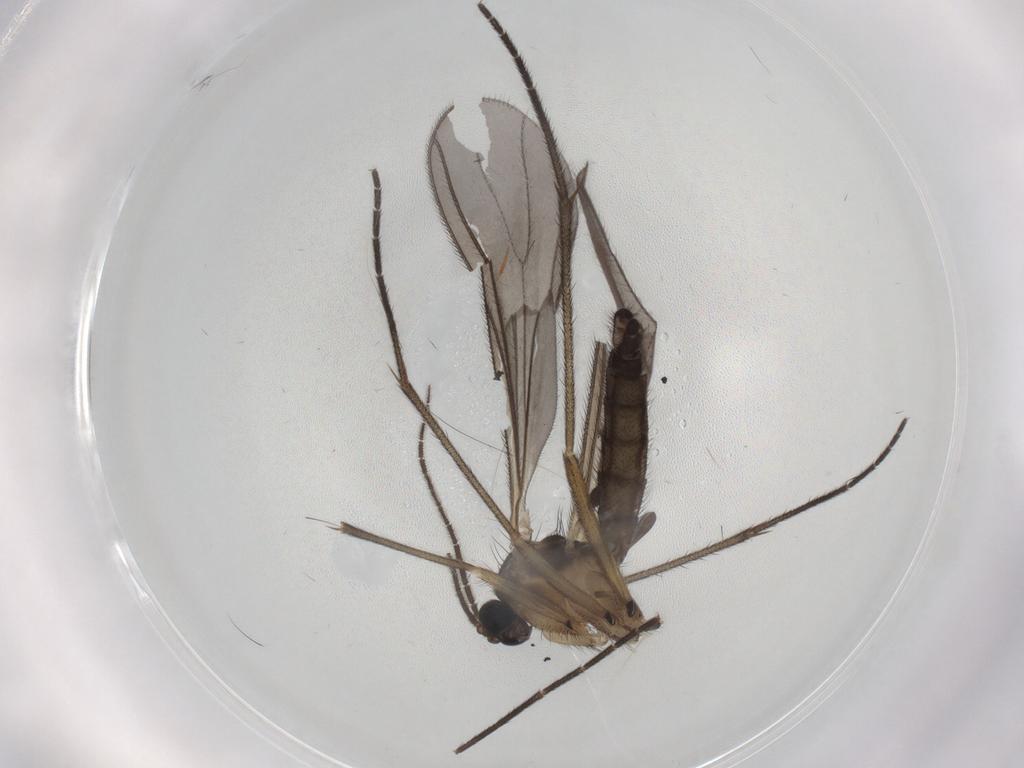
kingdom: Animalia
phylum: Arthropoda
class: Insecta
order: Diptera
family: Sciaridae
